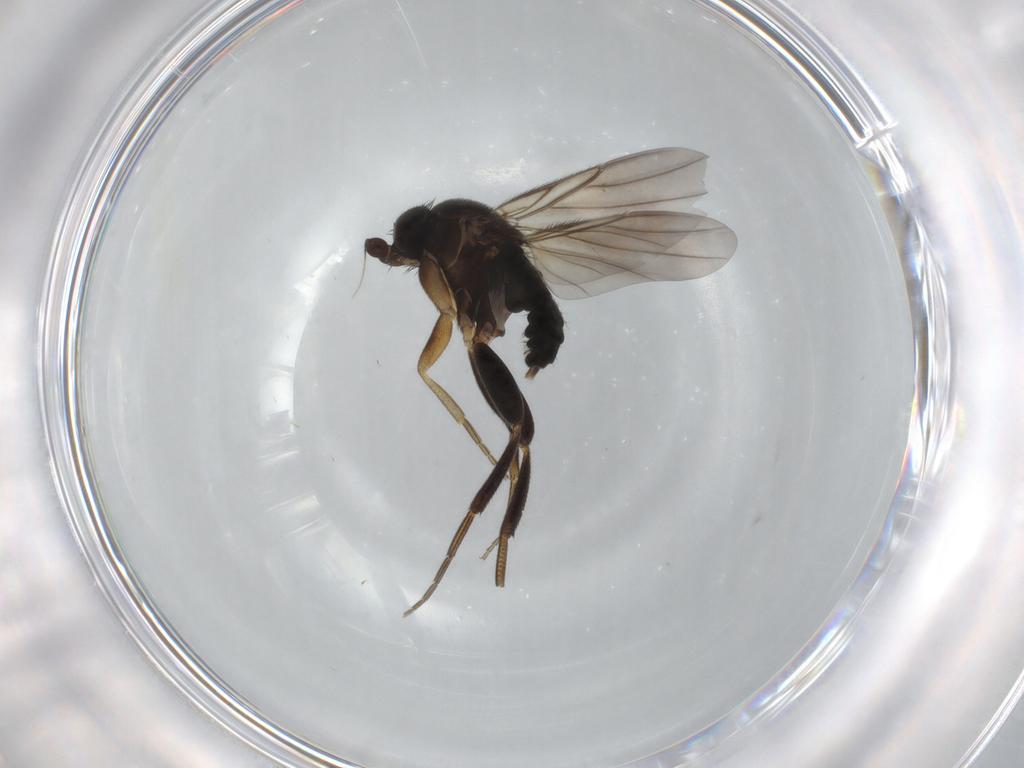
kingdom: Animalia
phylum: Arthropoda
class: Insecta
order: Diptera
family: Phoridae
